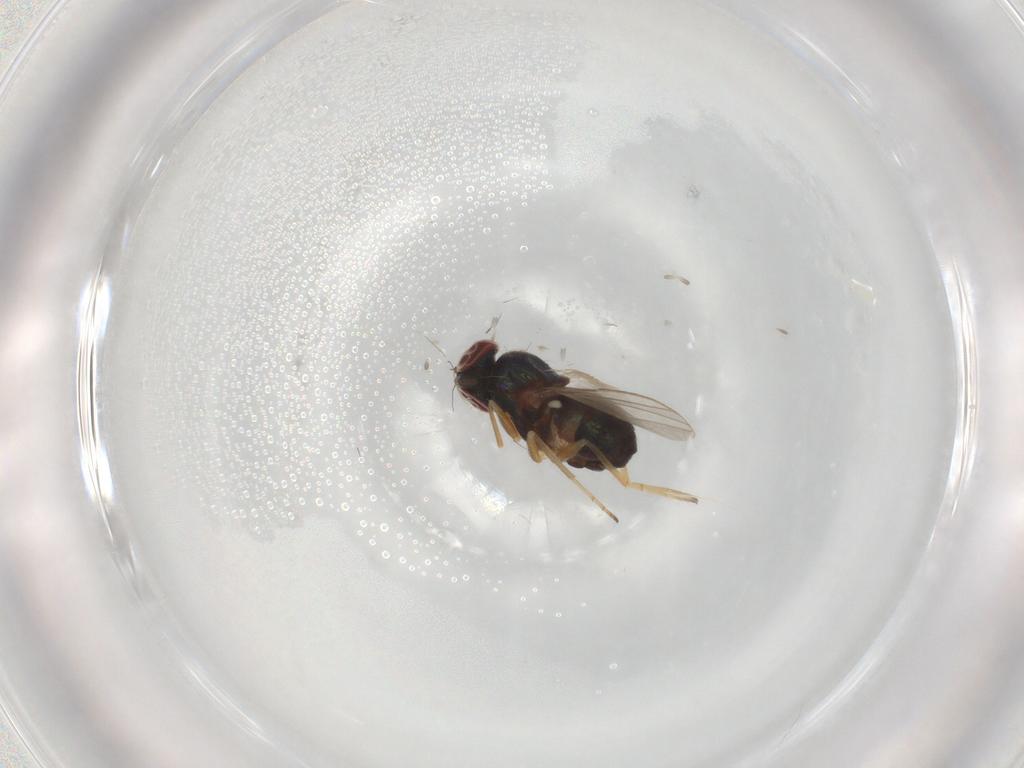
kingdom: Animalia
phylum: Arthropoda
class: Insecta
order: Diptera
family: Dolichopodidae
